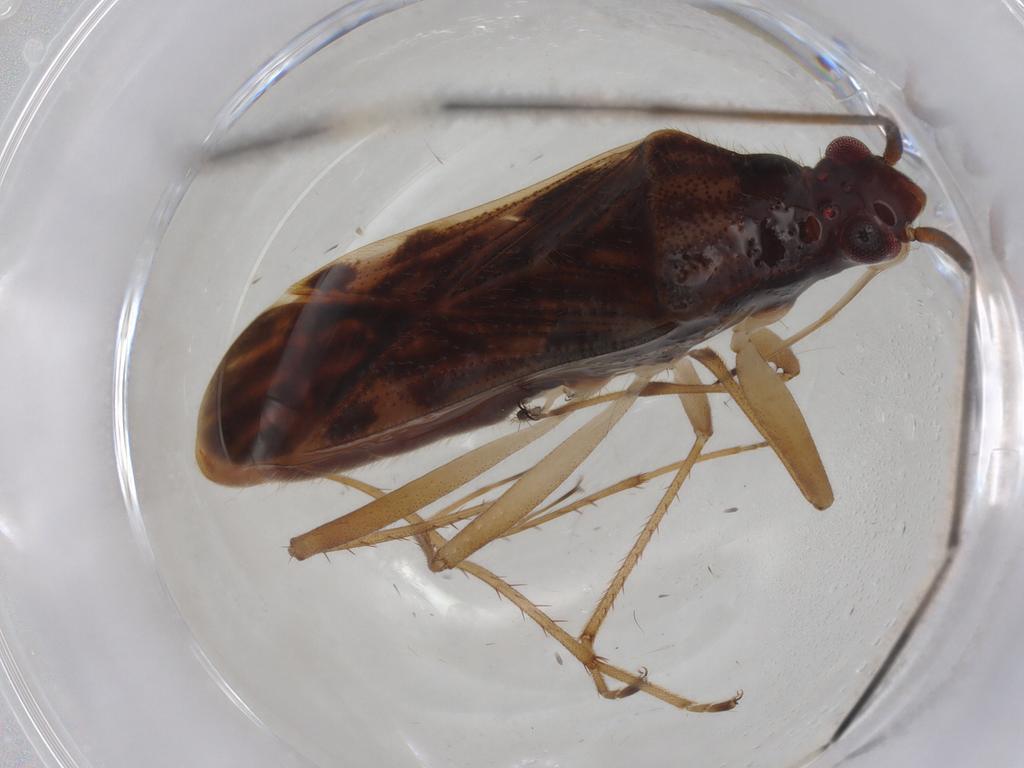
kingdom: Animalia
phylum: Arthropoda
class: Insecta
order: Hemiptera
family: Rhyparochromidae
